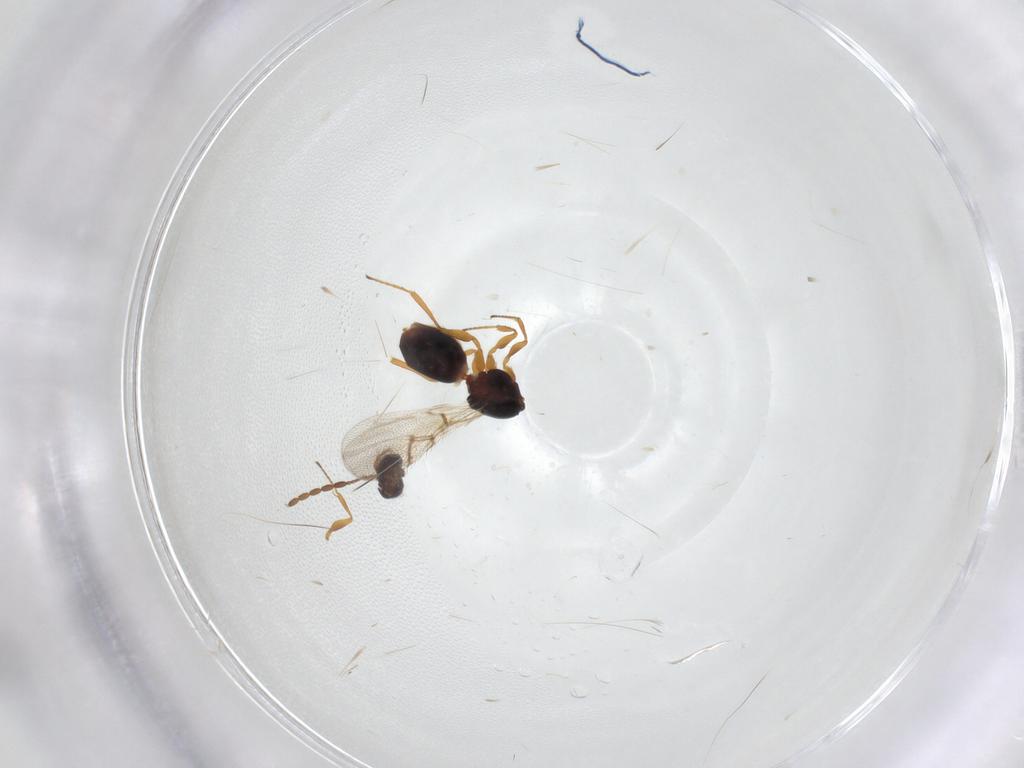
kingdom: Animalia
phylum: Arthropoda
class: Insecta
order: Hymenoptera
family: Figitidae
